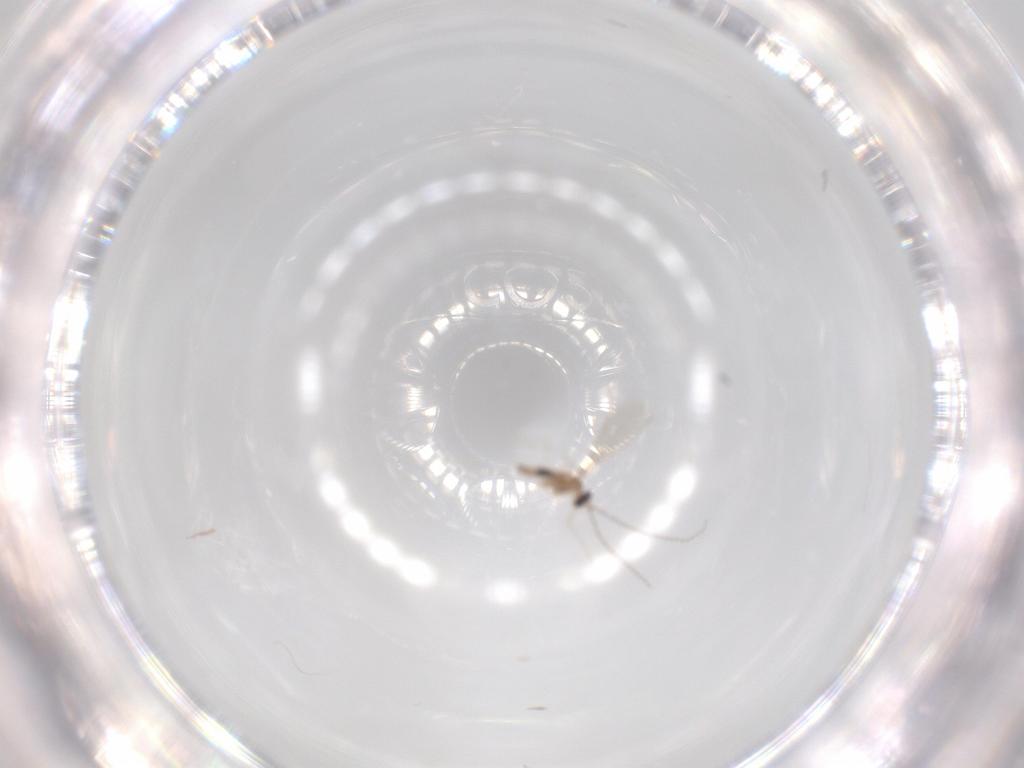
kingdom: Animalia
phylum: Arthropoda
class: Insecta
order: Diptera
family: Cecidomyiidae
